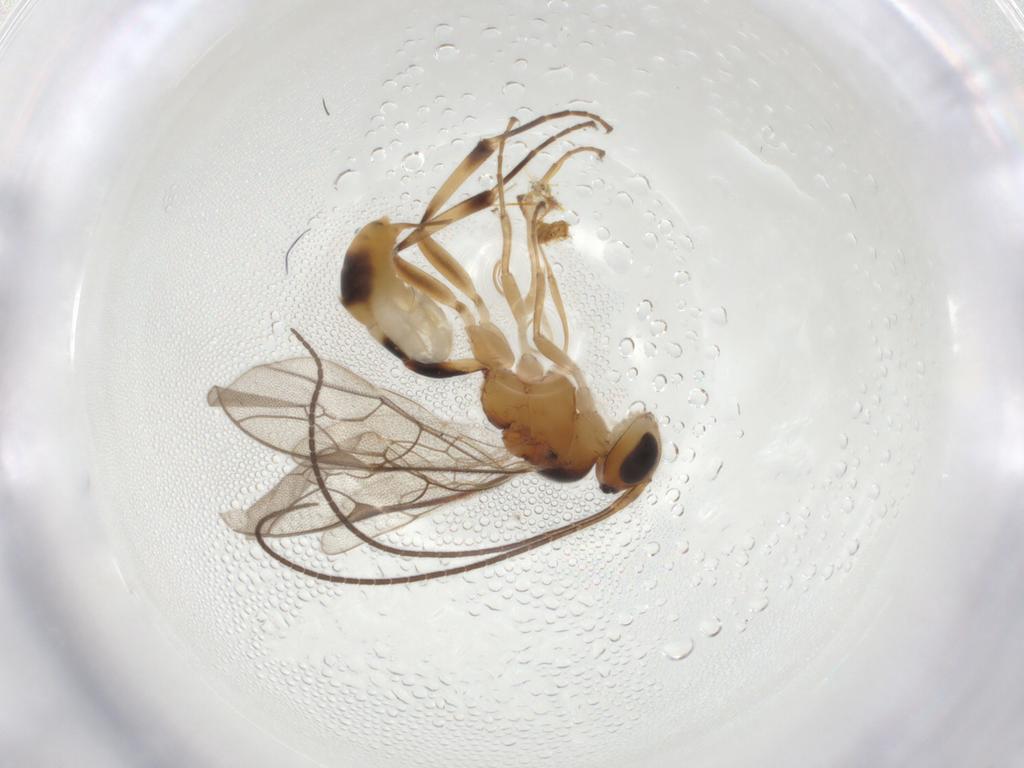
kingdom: Animalia
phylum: Arthropoda
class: Insecta
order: Hymenoptera
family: Ichneumonidae
